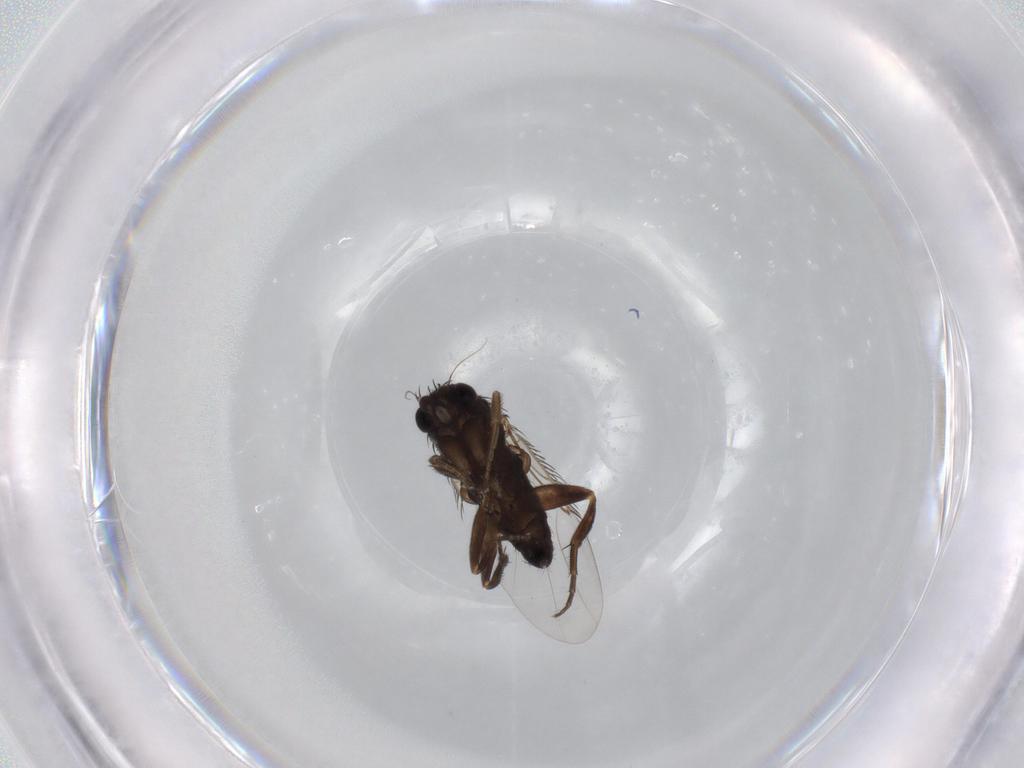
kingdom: Animalia
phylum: Arthropoda
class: Insecta
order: Diptera
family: Phoridae
